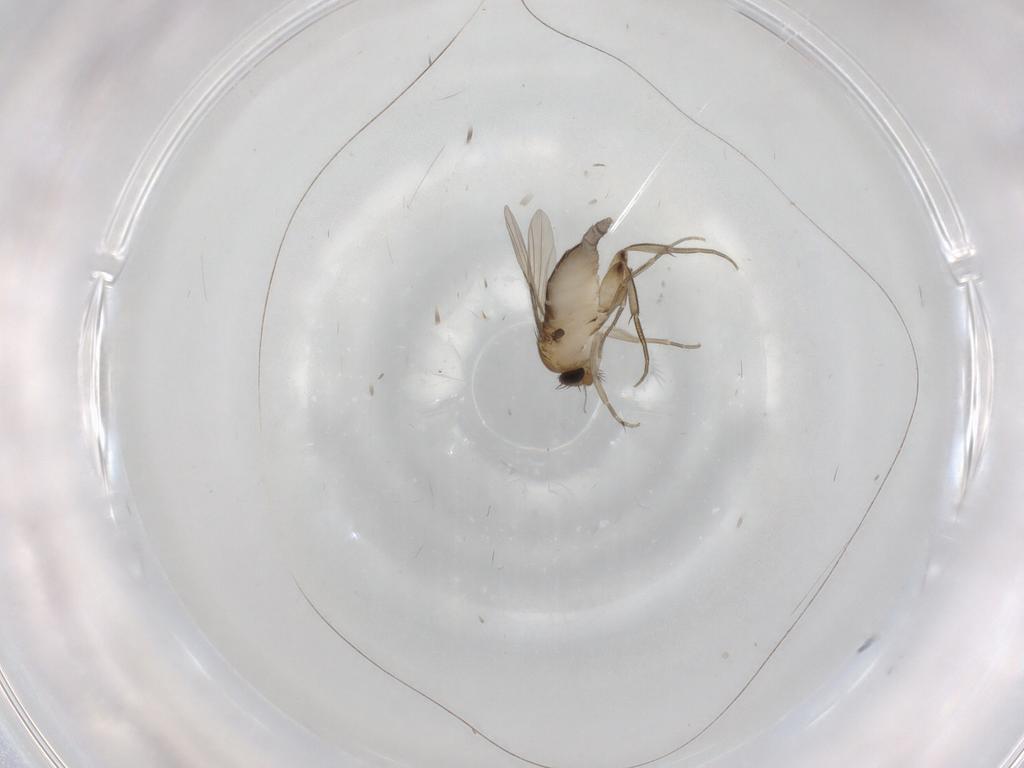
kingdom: Animalia
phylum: Arthropoda
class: Insecta
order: Diptera
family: Phoridae
